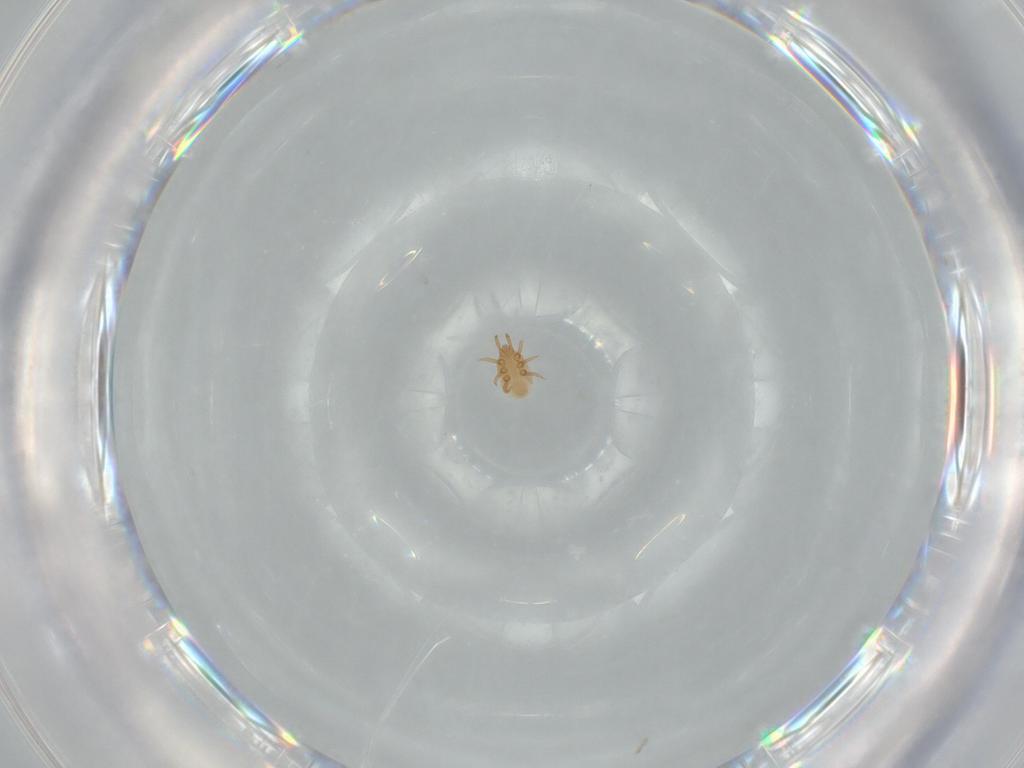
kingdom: Animalia
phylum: Arthropoda
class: Arachnida
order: Mesostigmata
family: Dinychidae
